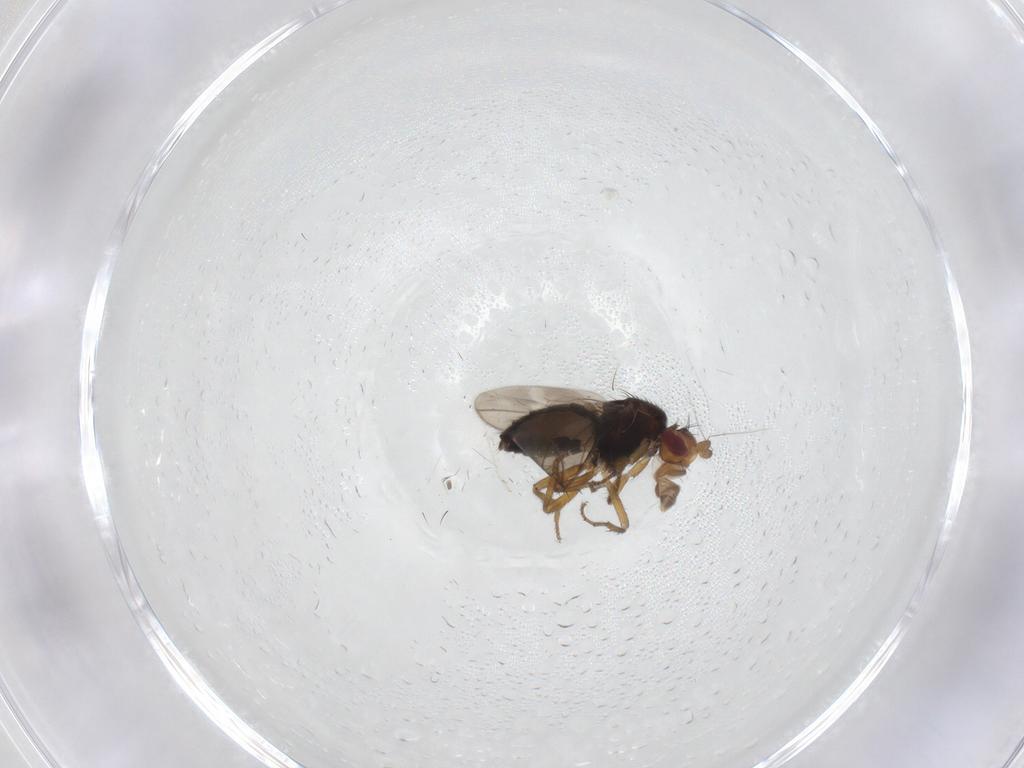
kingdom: Animalia
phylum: Arthropoda
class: Insecta
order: Diptera
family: Sphaeroceridae
